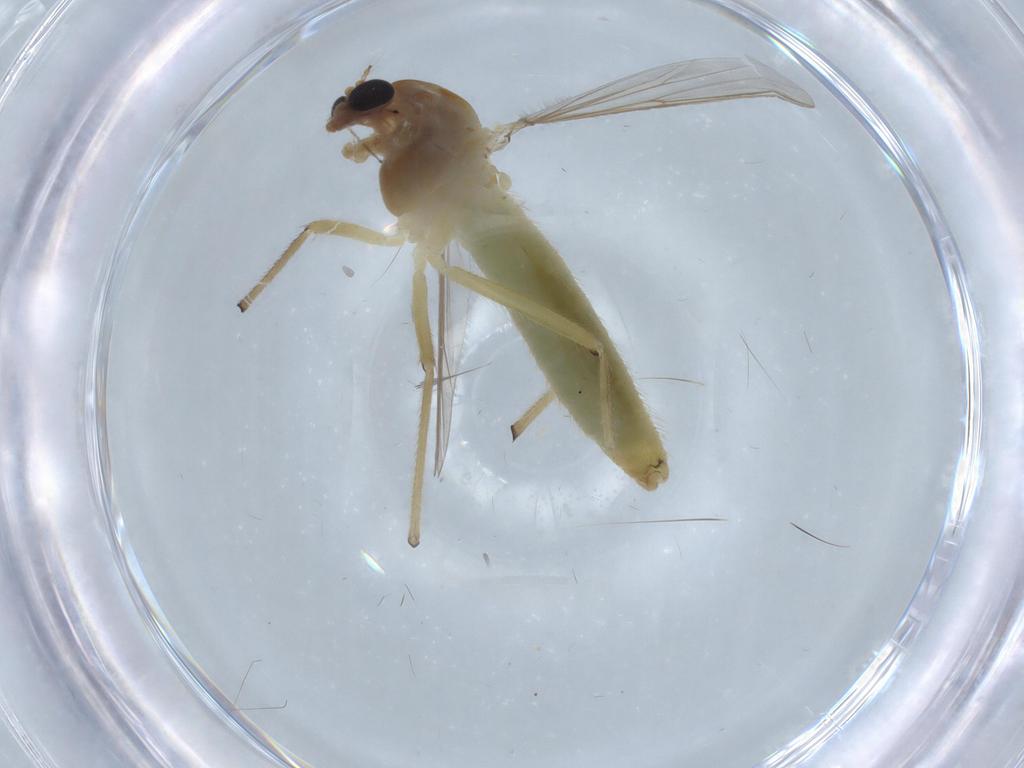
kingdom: Animalia
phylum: Arthropoda
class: Insecta
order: Diptera
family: Chironomidae
